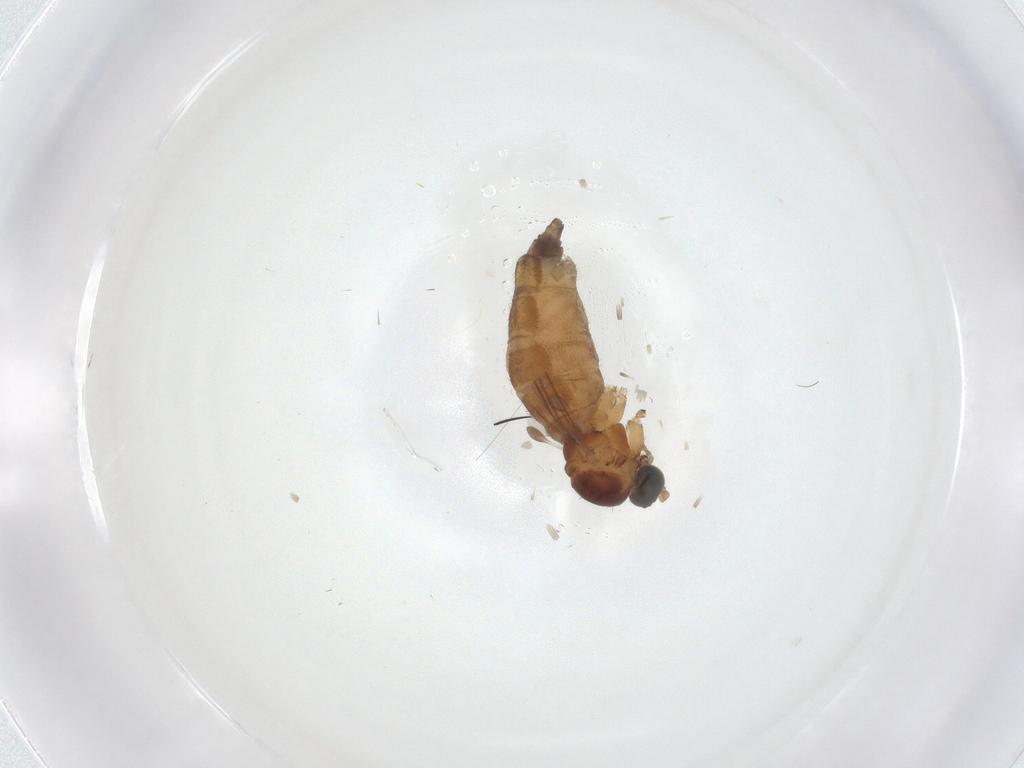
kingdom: Animalia
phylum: Arthropoda
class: Insecta
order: Diptera
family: Sciaridae
